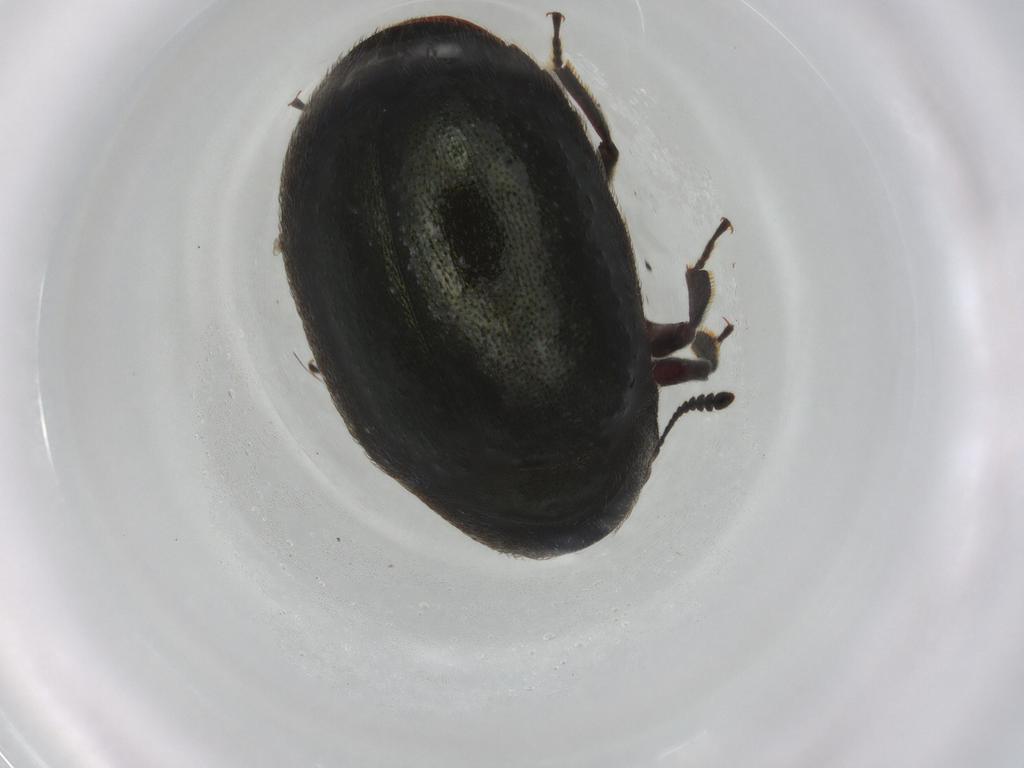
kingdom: Animalia
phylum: Arthropoda
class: Insecta
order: Coleoptera
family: Byrrhidae
